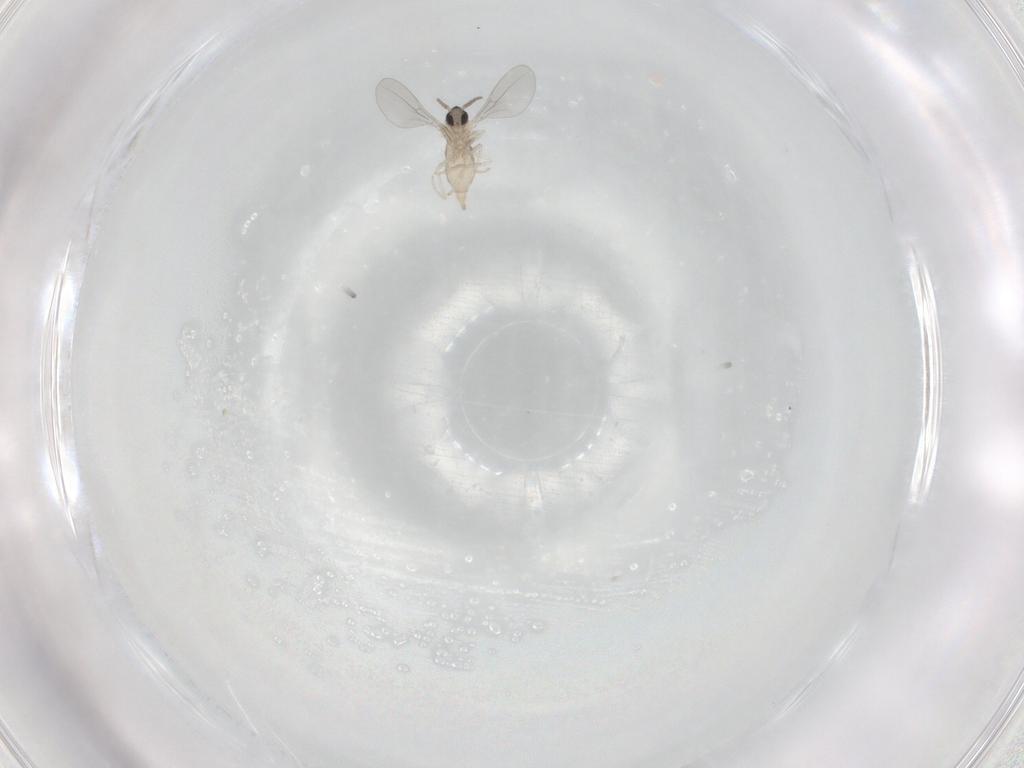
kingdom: Animalia
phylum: Arthropoda
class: Insecta
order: Diptera
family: Cecidomyiidae
